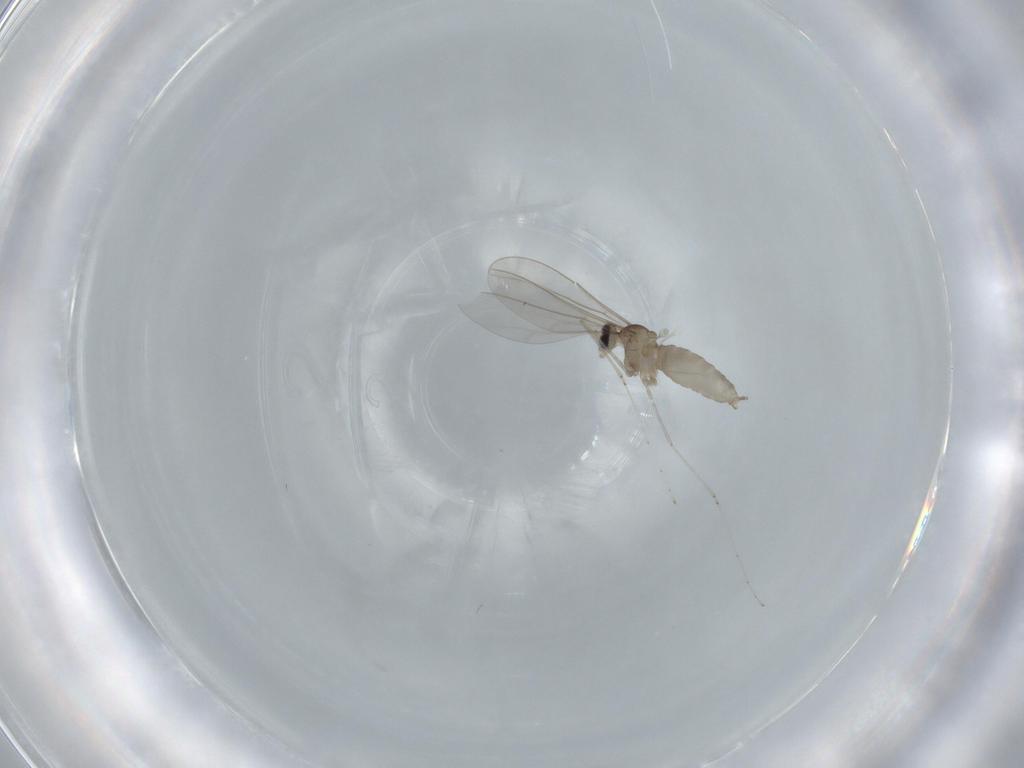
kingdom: Animalia
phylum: Arthropoda
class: Insecta
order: Diptera
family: Cecidomyiidae
